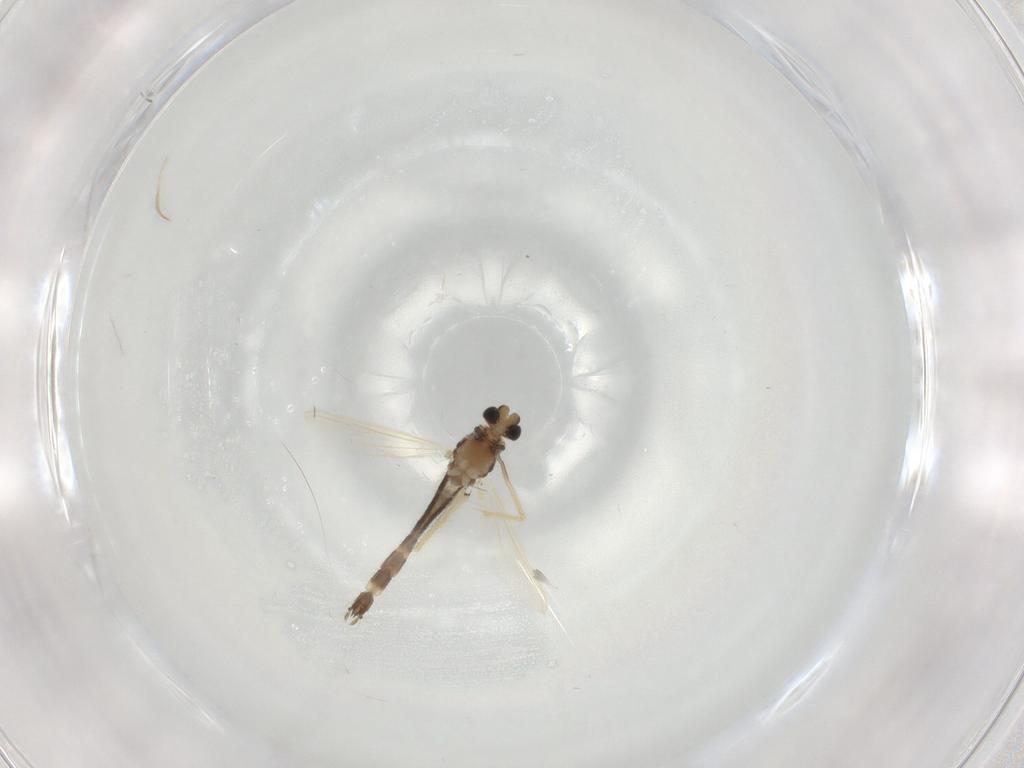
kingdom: Animalia
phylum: Arthropoda
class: Insecta
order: Diptera
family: Chironomidae
